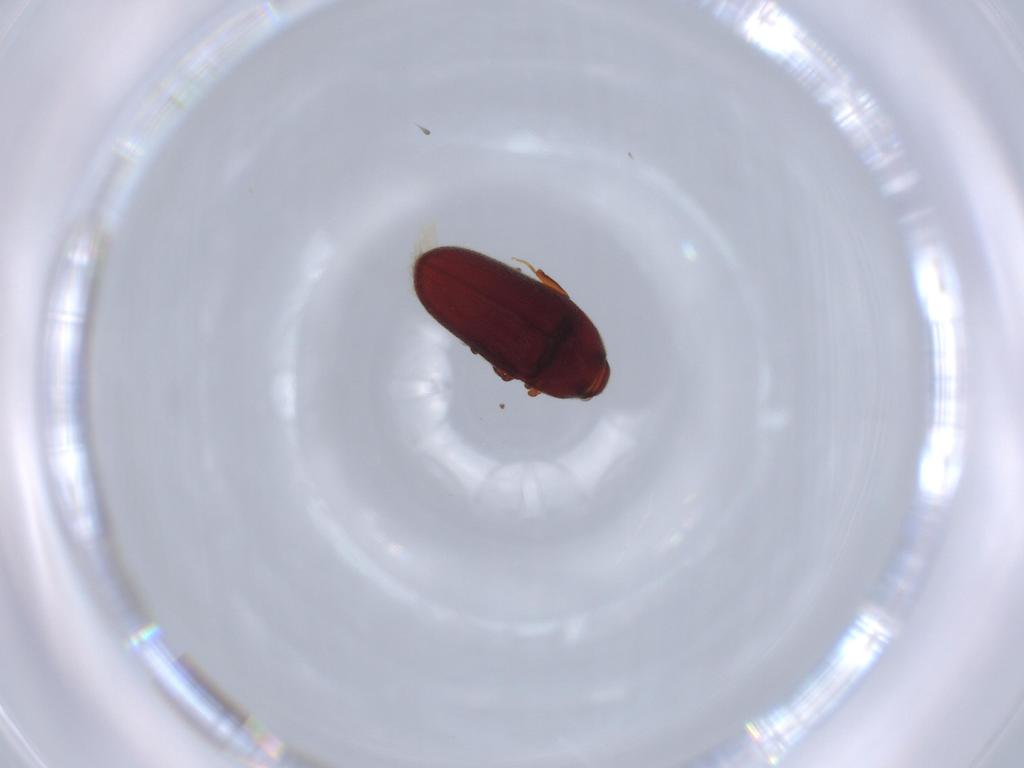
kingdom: Animalia
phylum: Arthropoda
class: Insecta
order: Coleoptera
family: Throscidae
